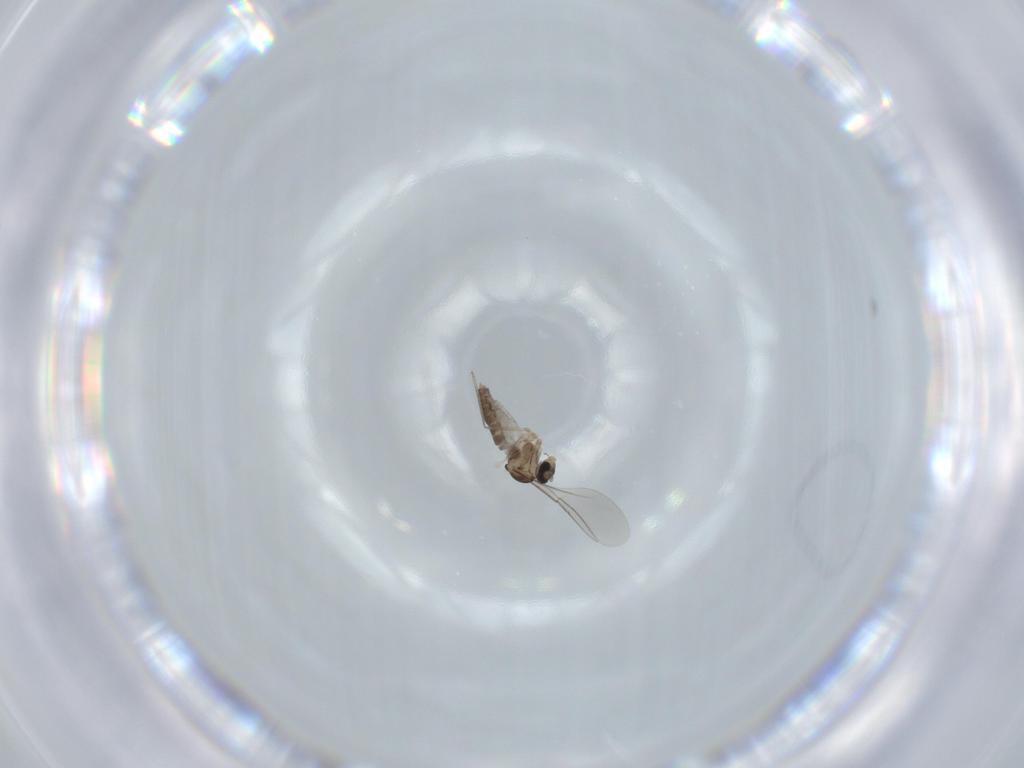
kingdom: Animalia
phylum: Arthropoda
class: Insecta
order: Diptera
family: Cecidomyiidae
